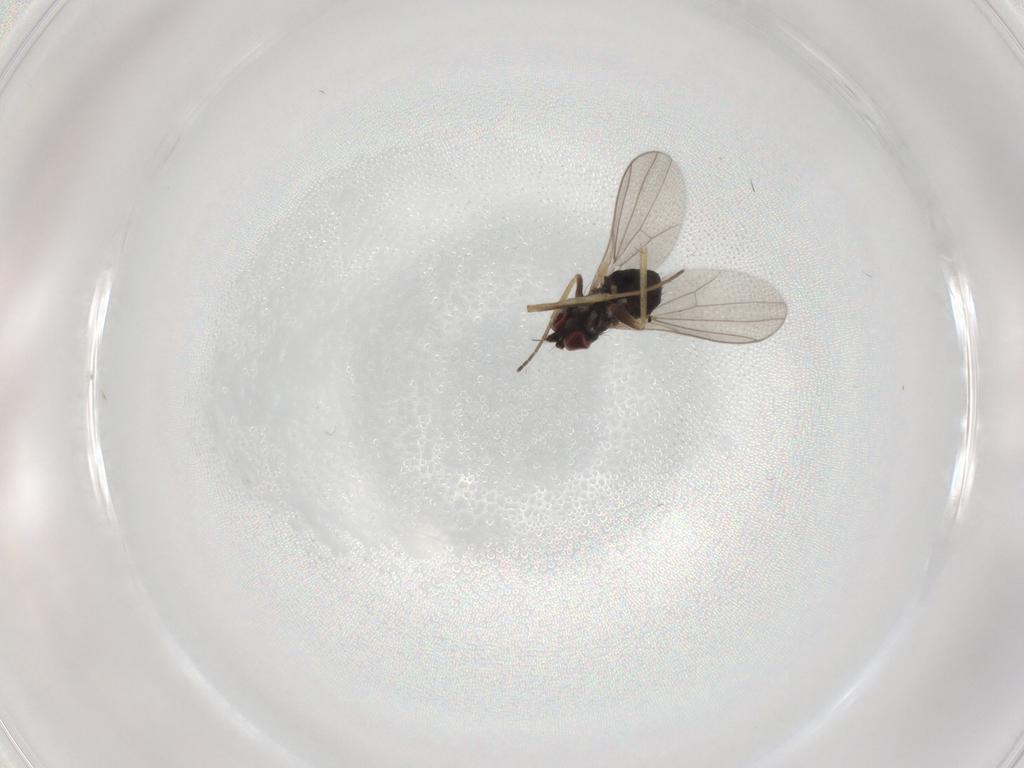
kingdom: Animalia
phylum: Arthropoda
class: Insecta
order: Diptera
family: Dolichopodidae
